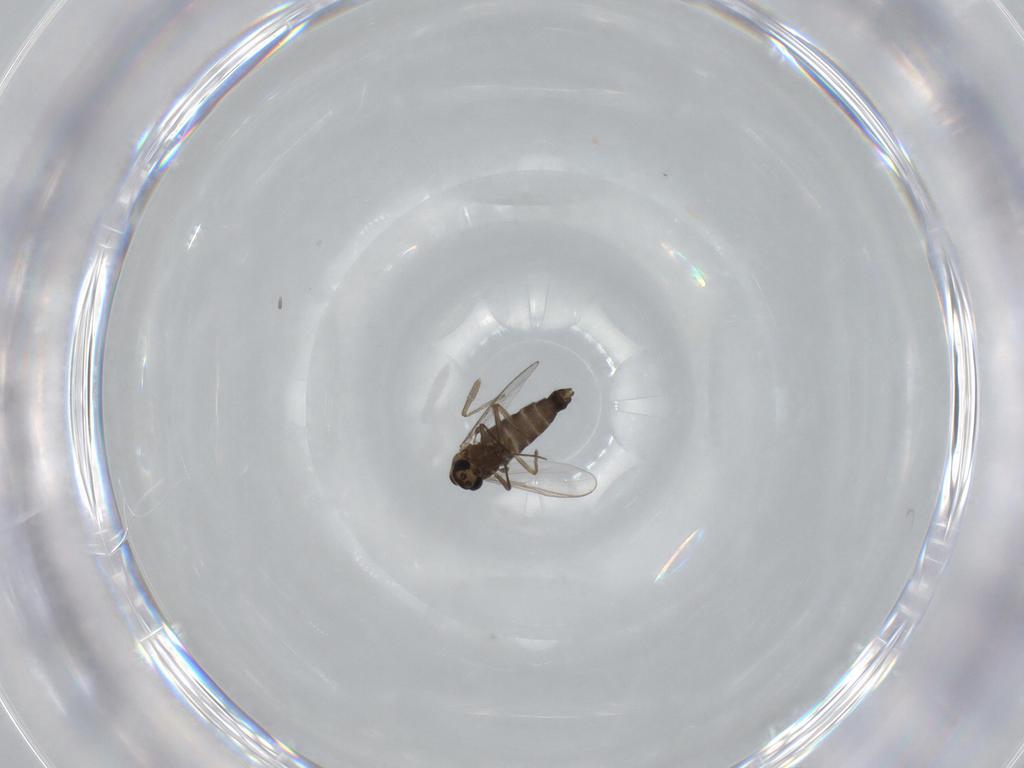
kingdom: Animalia
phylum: Arthropoda
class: Insecta
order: Diptera
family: Chironomidae
